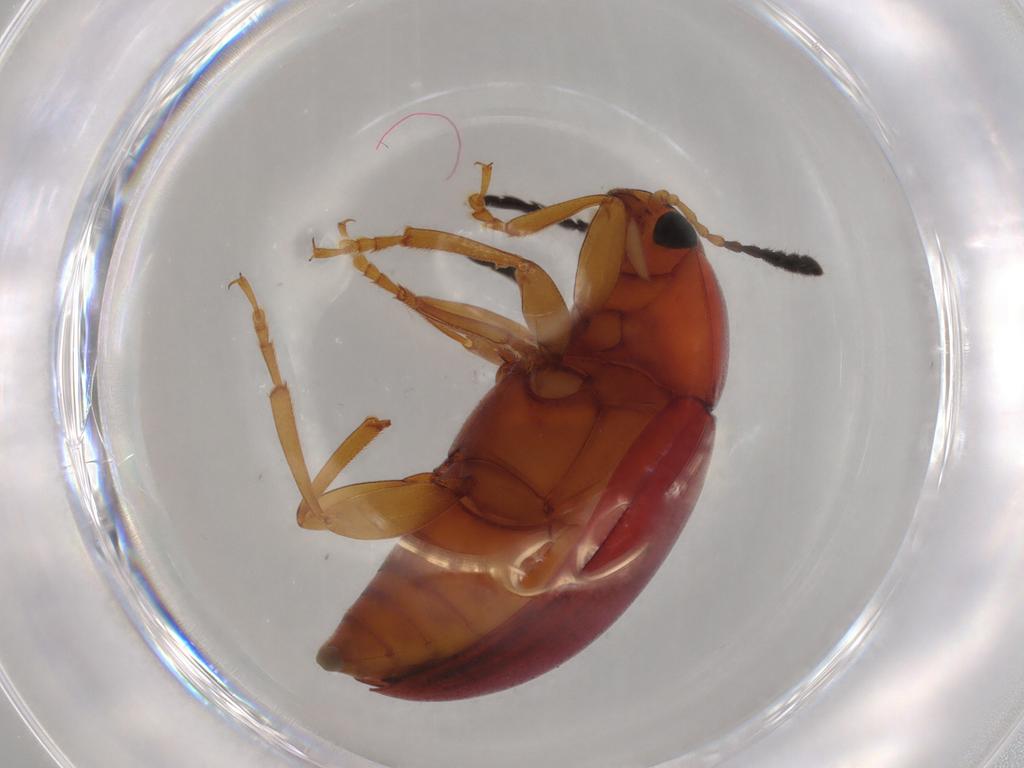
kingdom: Animalia
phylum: Arthropoda
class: Insecta
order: Coleoptera
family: Erotylidae
